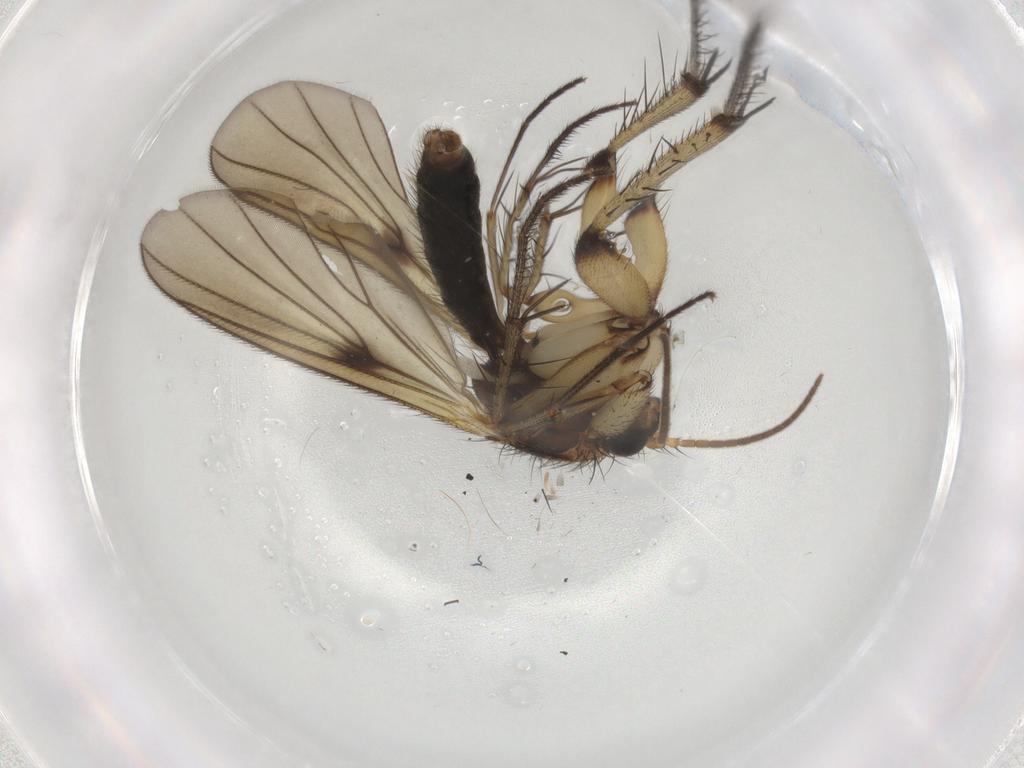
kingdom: Animalia
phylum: Arthropoda
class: Insecta
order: Diptera
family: Mycetophilidae
